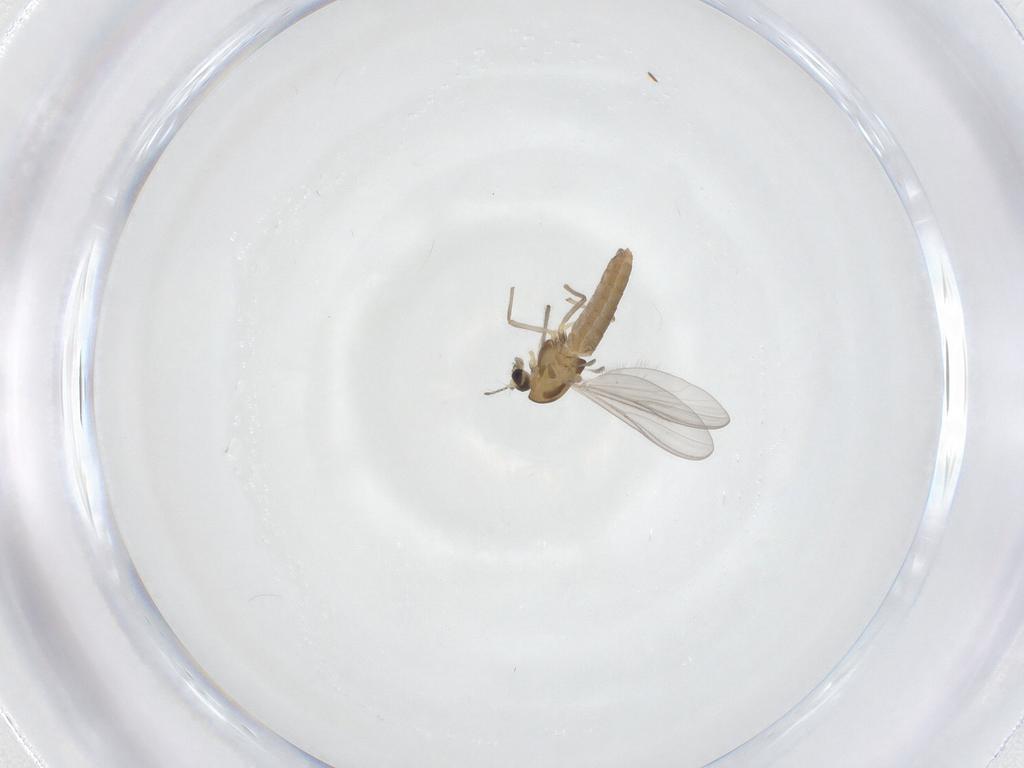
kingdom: Animalia
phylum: Arthropoda
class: Insecta
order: Diptera
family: Chironomidae
